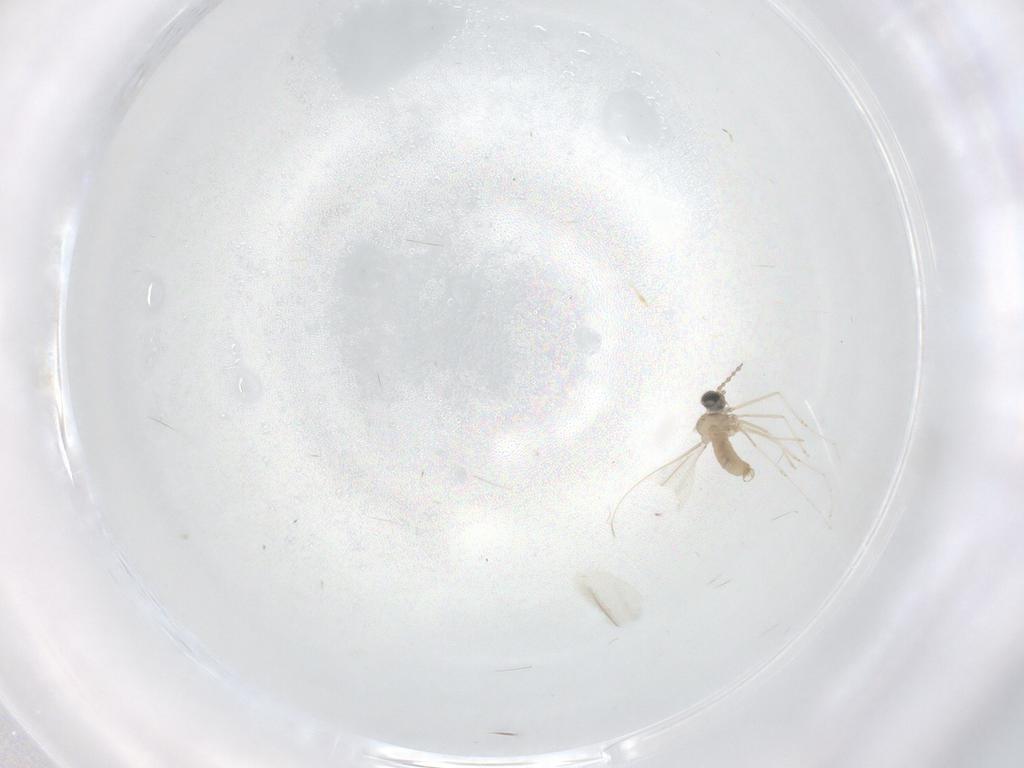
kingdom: Animalia
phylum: Arthropoda
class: Insecta
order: Diptera
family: Cecidomyiidae
